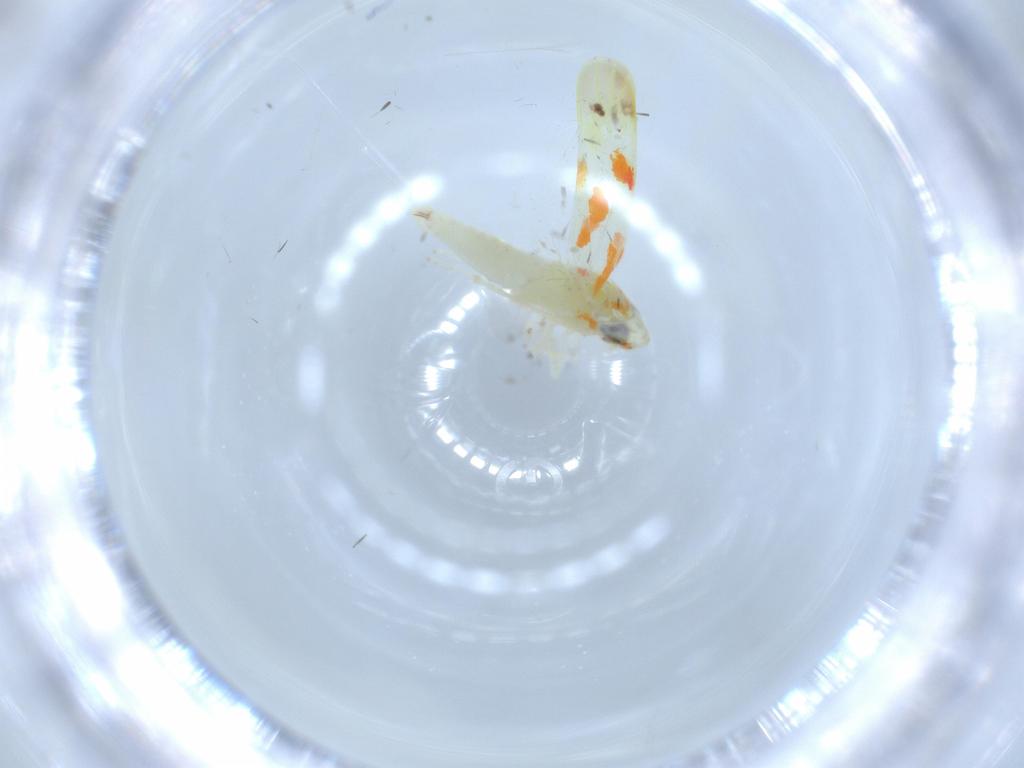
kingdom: Animalia
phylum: Arthropoda
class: Insecta
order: Hemiptera
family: Cicadellidae
